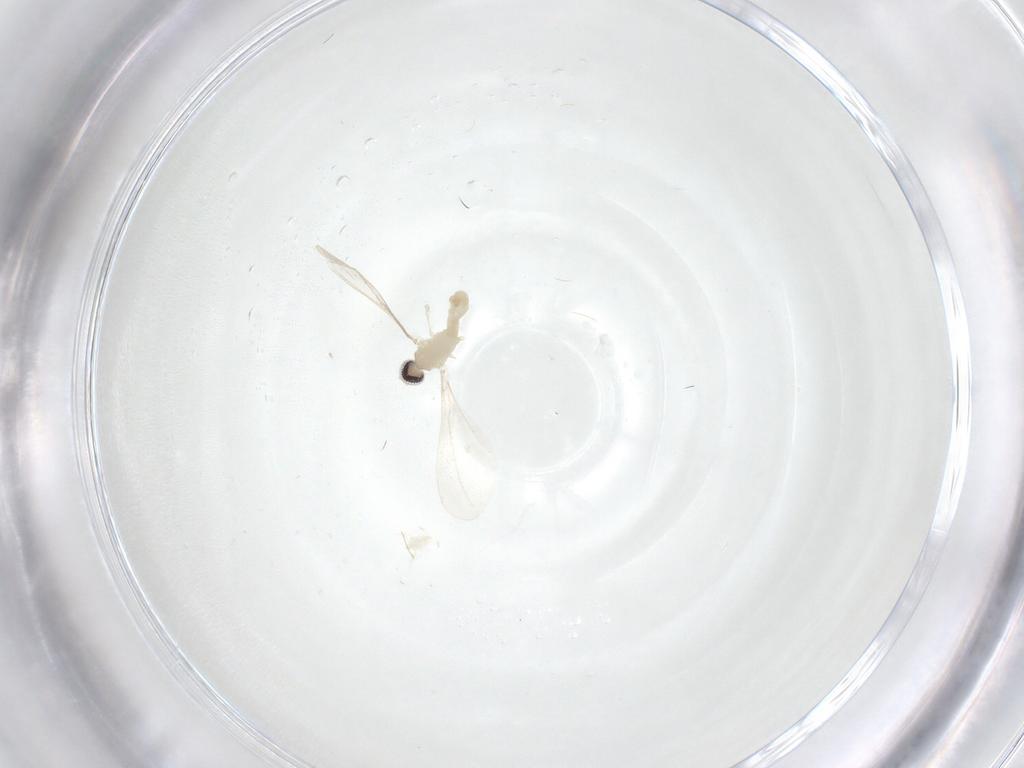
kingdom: Animalia
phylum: Arthropoda
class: Insecta
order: Diptera
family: Cecidomyiidae
